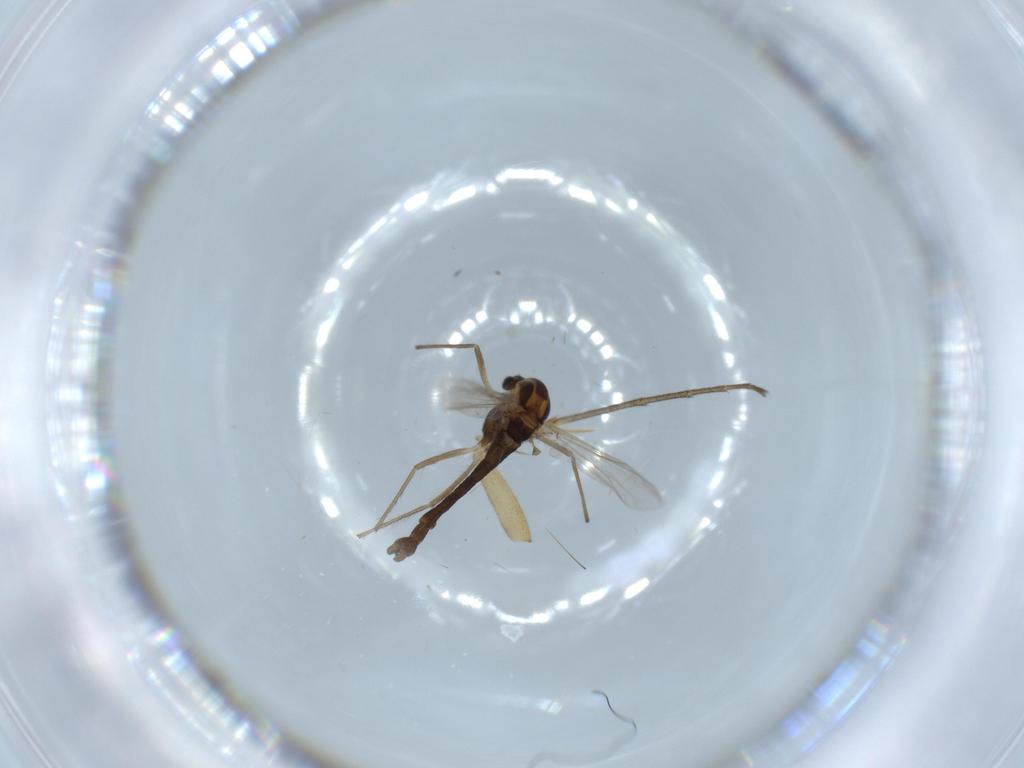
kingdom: Animalia
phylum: Arthropoda
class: Insecta
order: Diptera
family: Chironomidae
